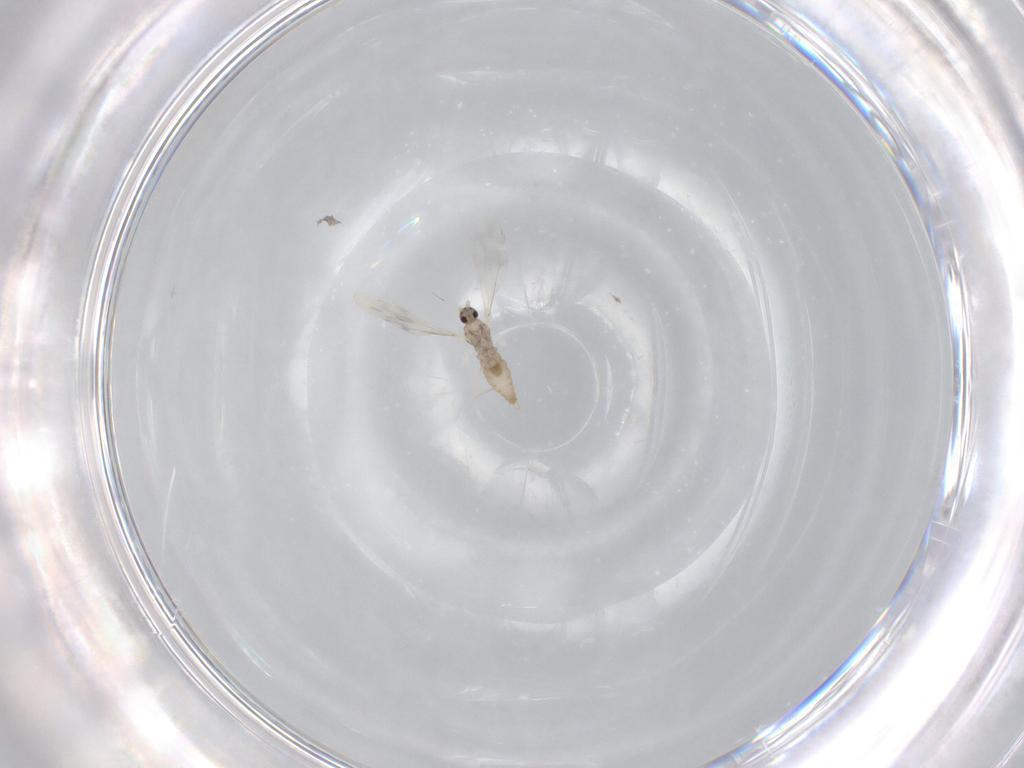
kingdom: Animalia
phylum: Arthropoda
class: Insecta
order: Diptera
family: Cecidomyiidae
